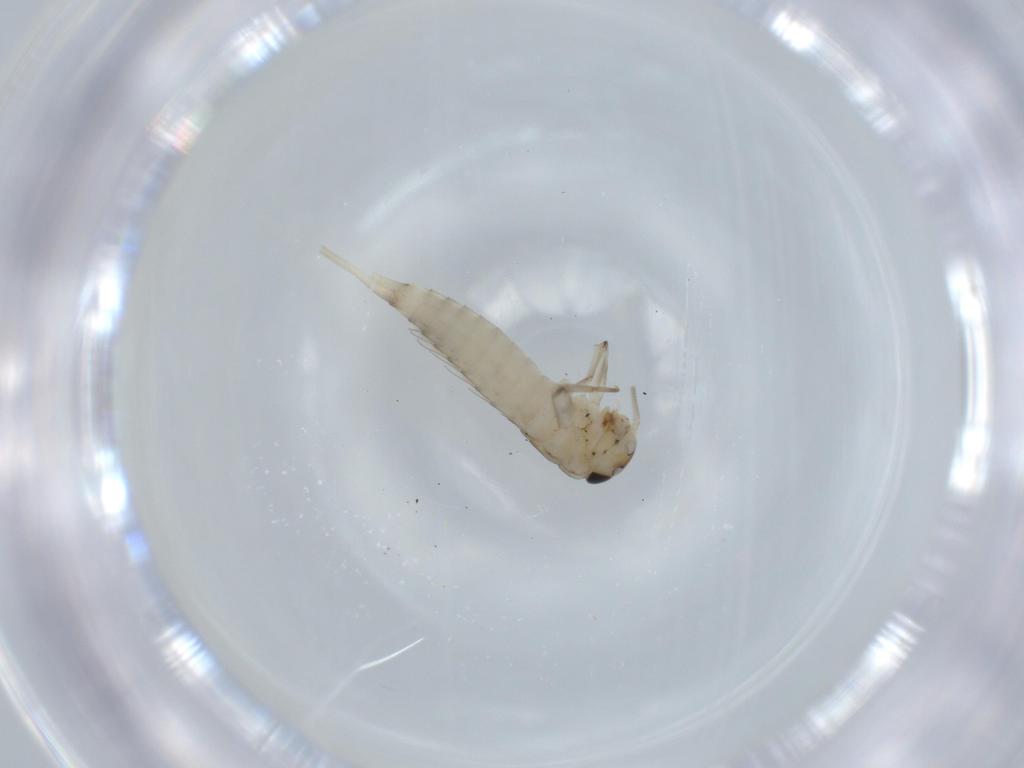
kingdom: Animalia
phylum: Arthropoda
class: Insecta
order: Ephemeroptera
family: Baetidae
